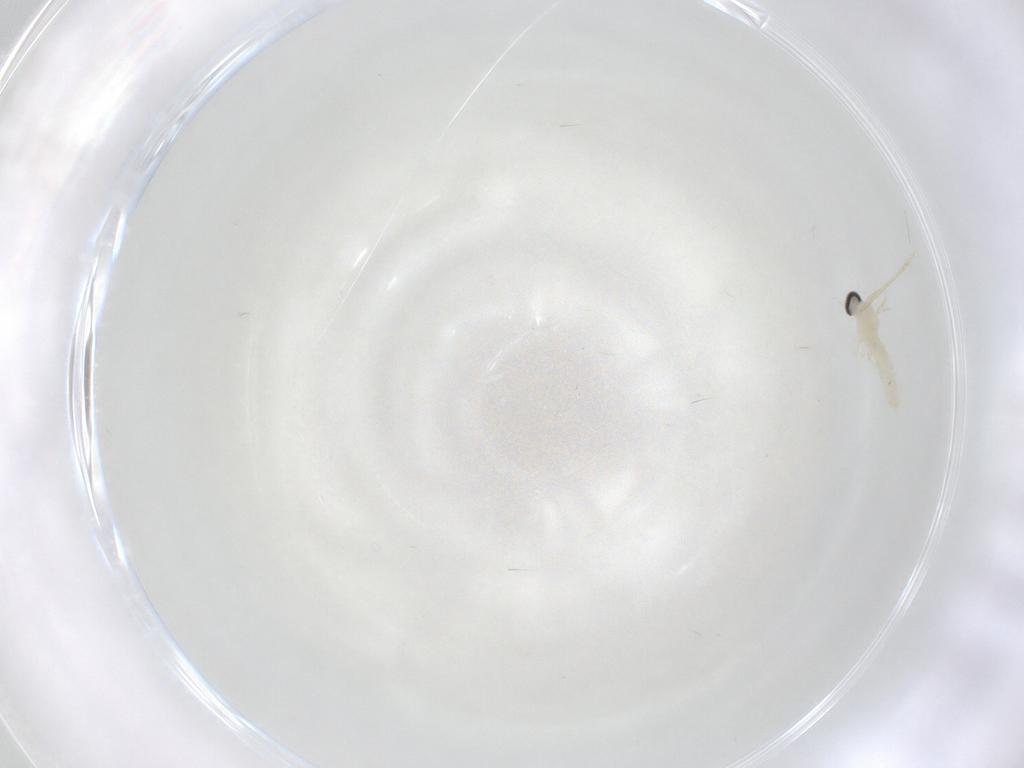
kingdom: Animalia
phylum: Arthropoda
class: Insecta
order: Diptera
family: Cecidomyiidae
